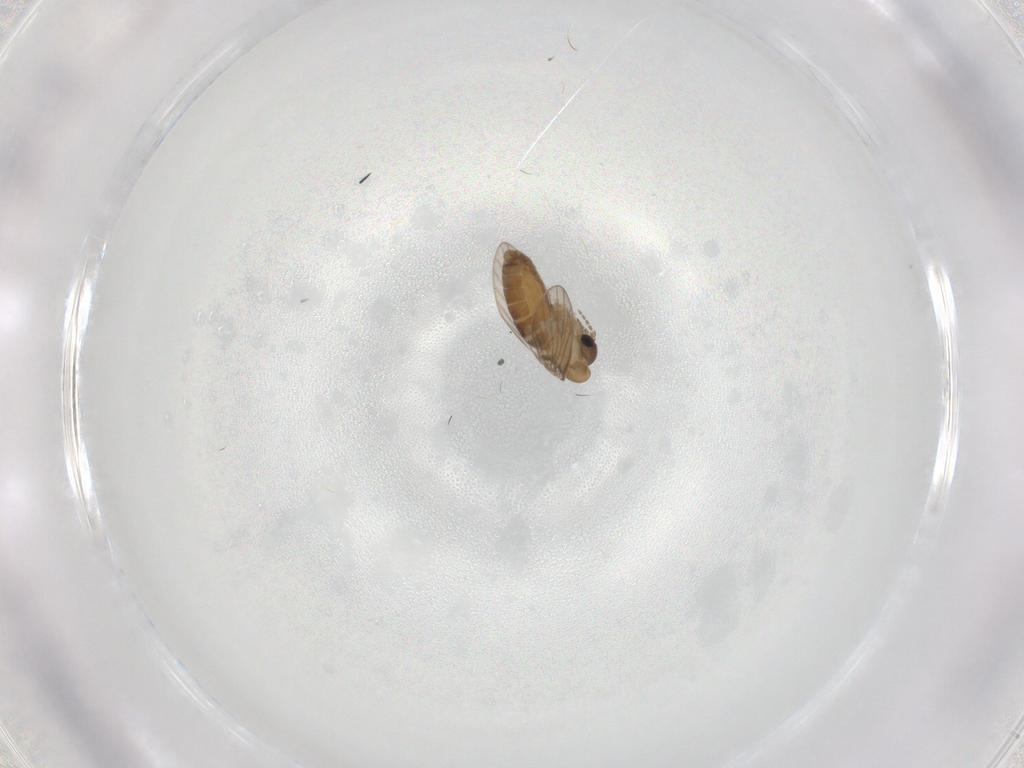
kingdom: Animalia
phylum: Arthropoda
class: Insecta
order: Diptera
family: Psychodidae
